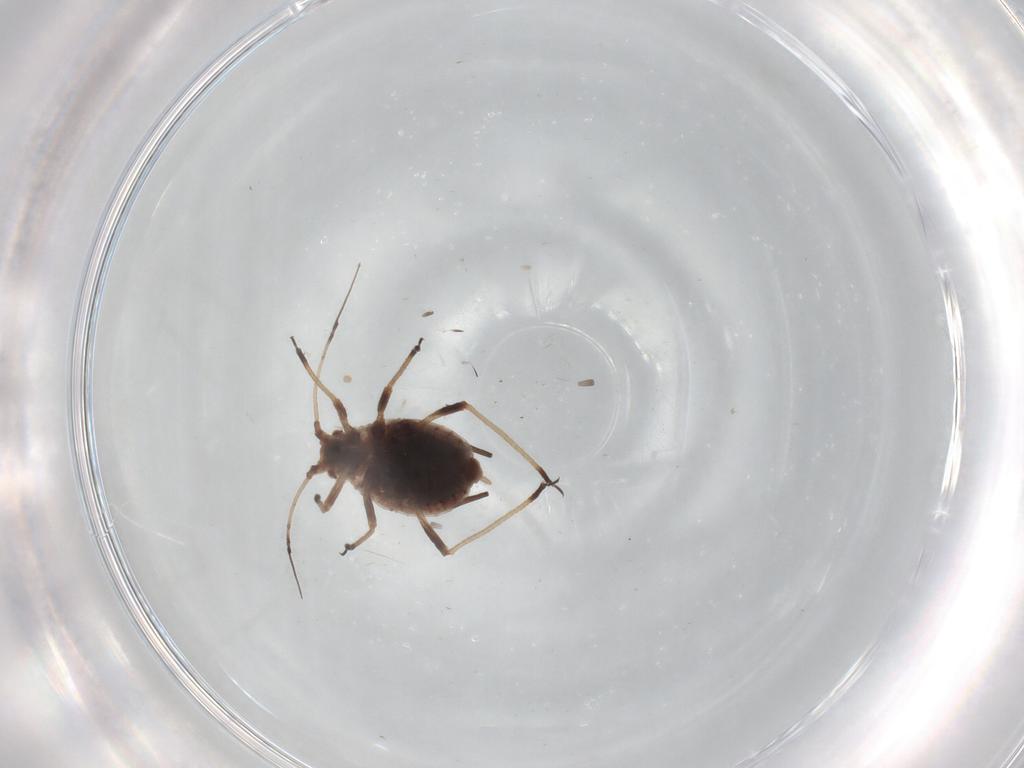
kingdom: Animalia
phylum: Arthropoda
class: Insecta
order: Hemiptera
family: Aphididae
